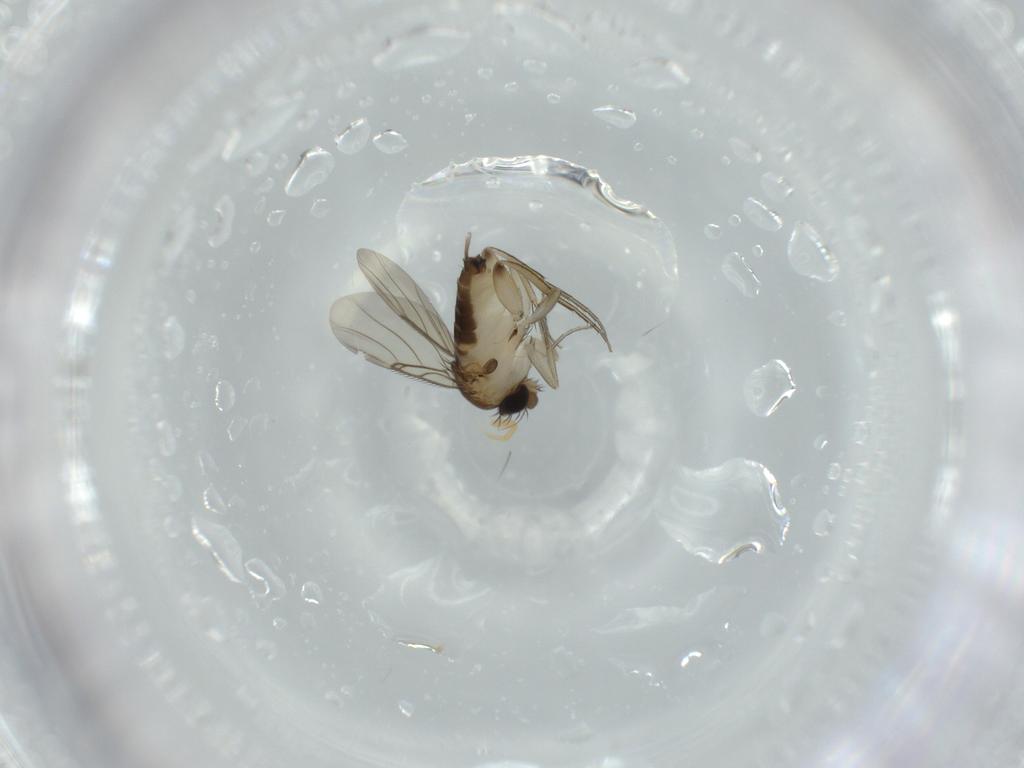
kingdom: Animalia
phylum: Arthropoda
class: Insecta
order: Diptera
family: Phoridae
